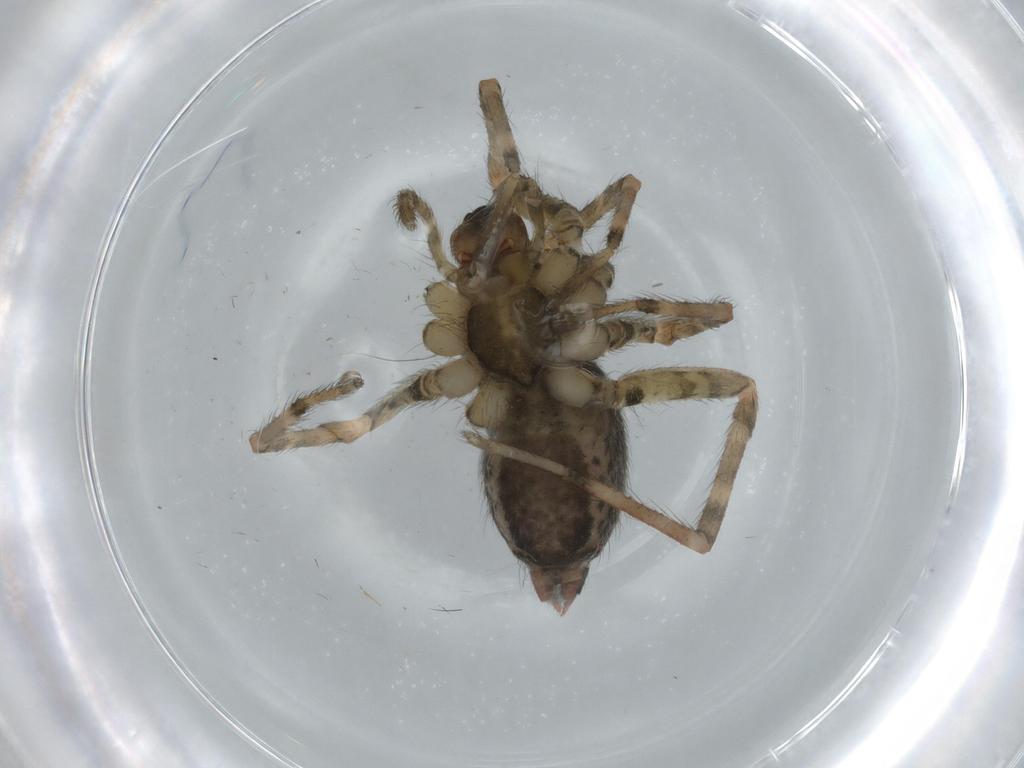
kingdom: Animalia
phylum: Arthropoda
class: Arachnida
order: Araneae
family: Agelenidae
